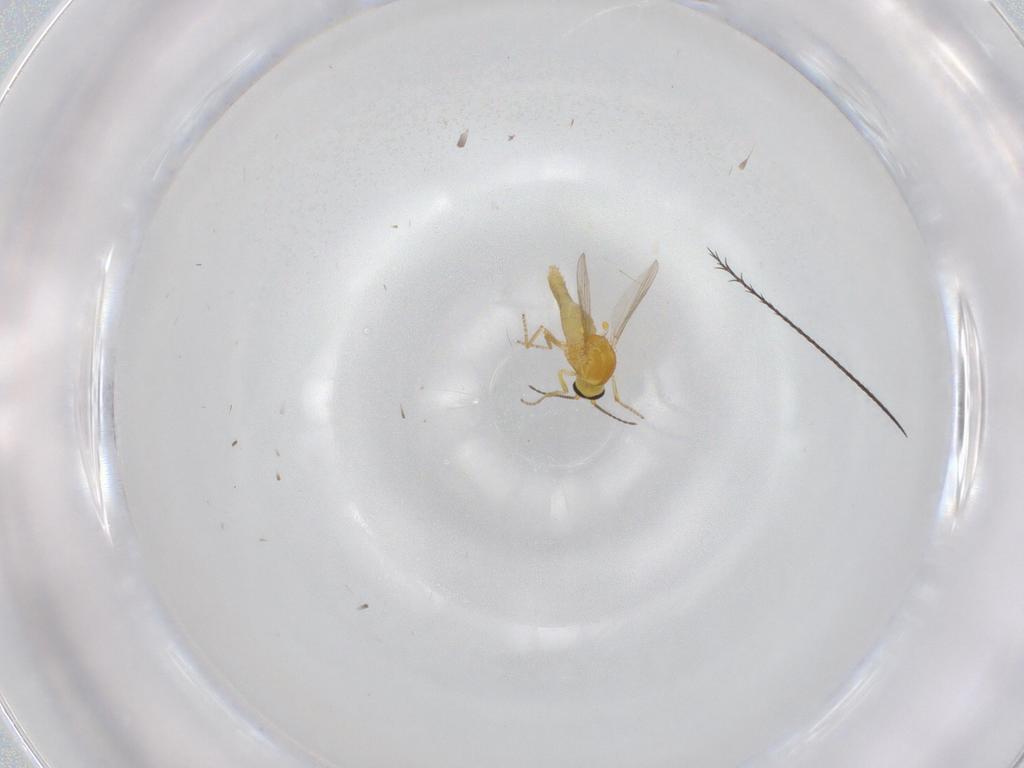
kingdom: Animalia
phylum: Arthropoda
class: Insecta
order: Diptera
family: Ceratopogonidae
